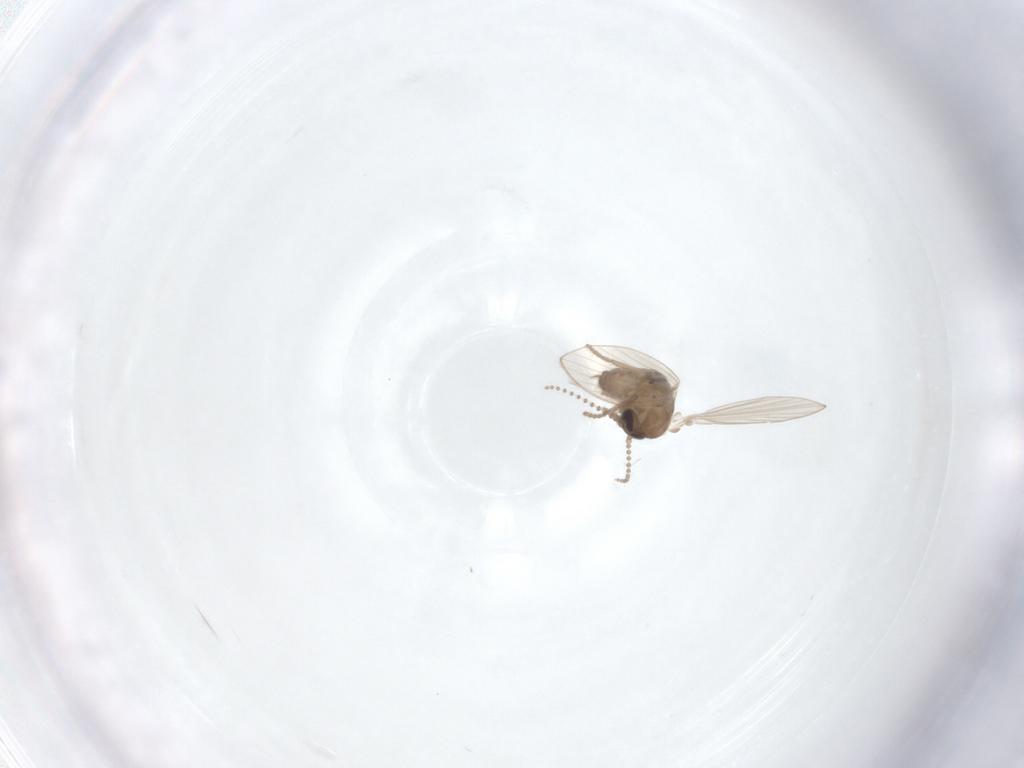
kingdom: Animalia
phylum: Arthropoda
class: Insecta
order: Diptera
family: Psychodidae
